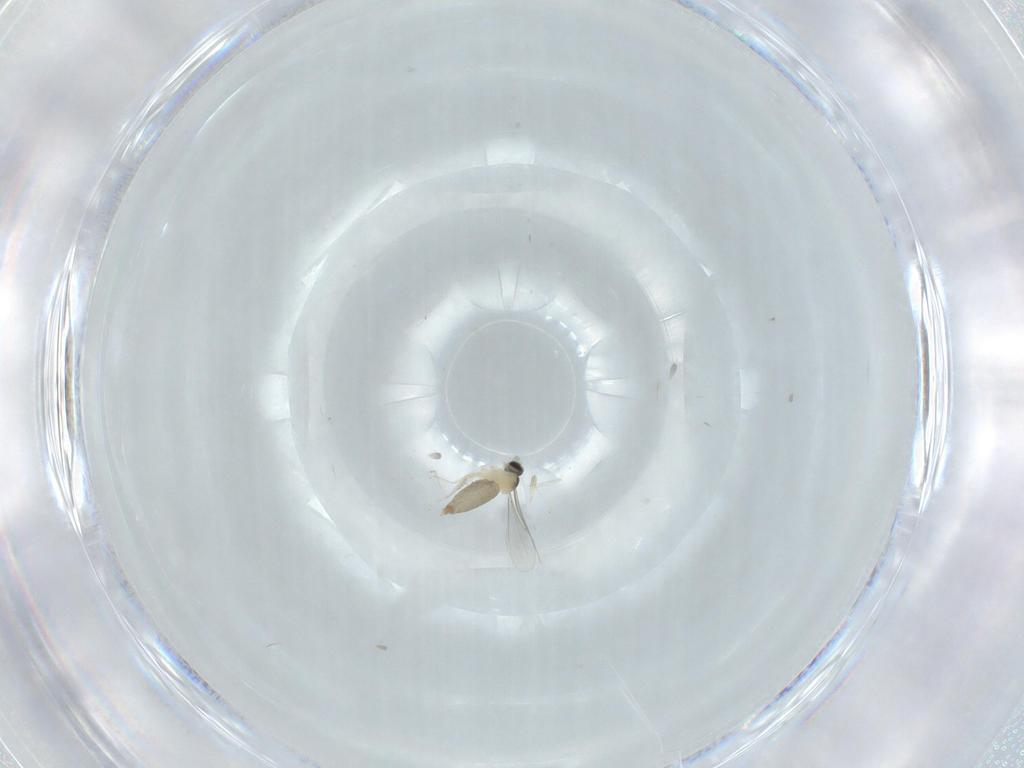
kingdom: Animalia
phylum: Arthropoda
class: Insecta
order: Diptera
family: Cecidomyiidae
